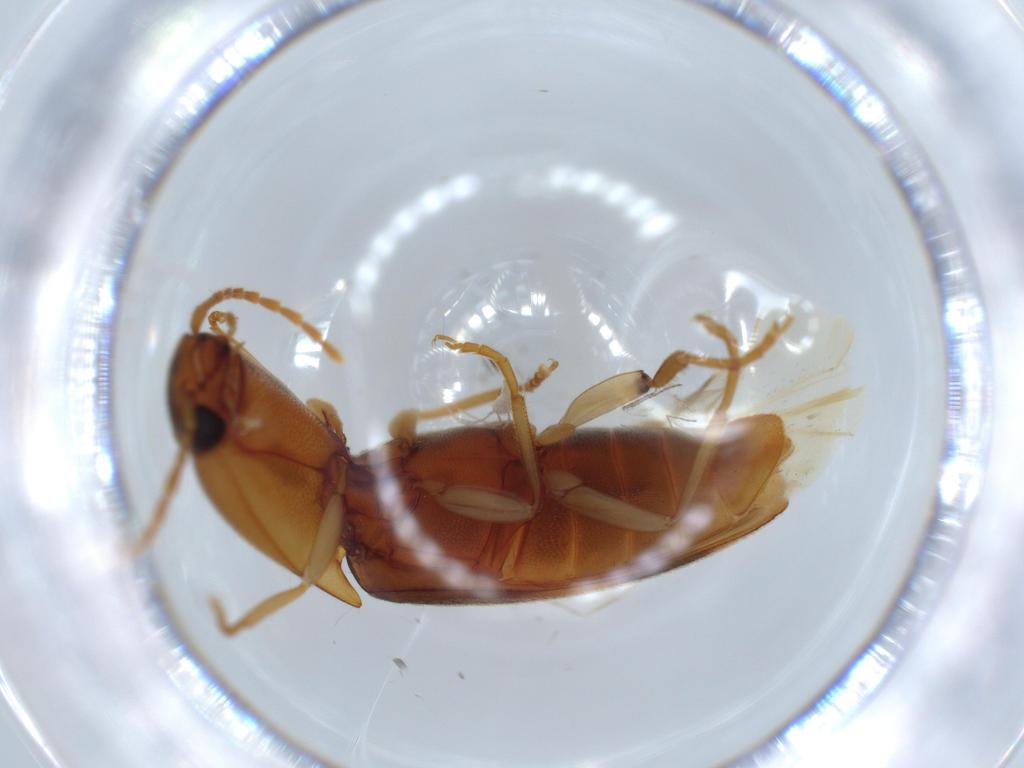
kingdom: Animalia
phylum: Arthropoda
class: Insecta
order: Coleoptera
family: Elateridae
